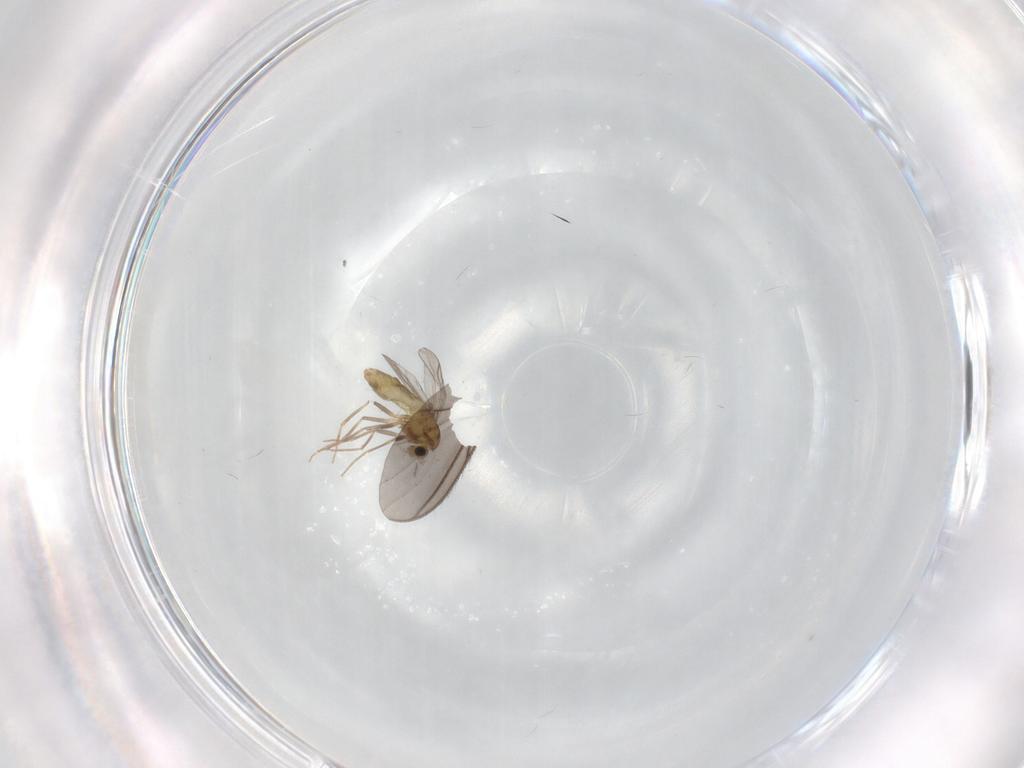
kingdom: Animalia
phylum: Arthropoda
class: Insecta
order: Diptera
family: Chironomidae
